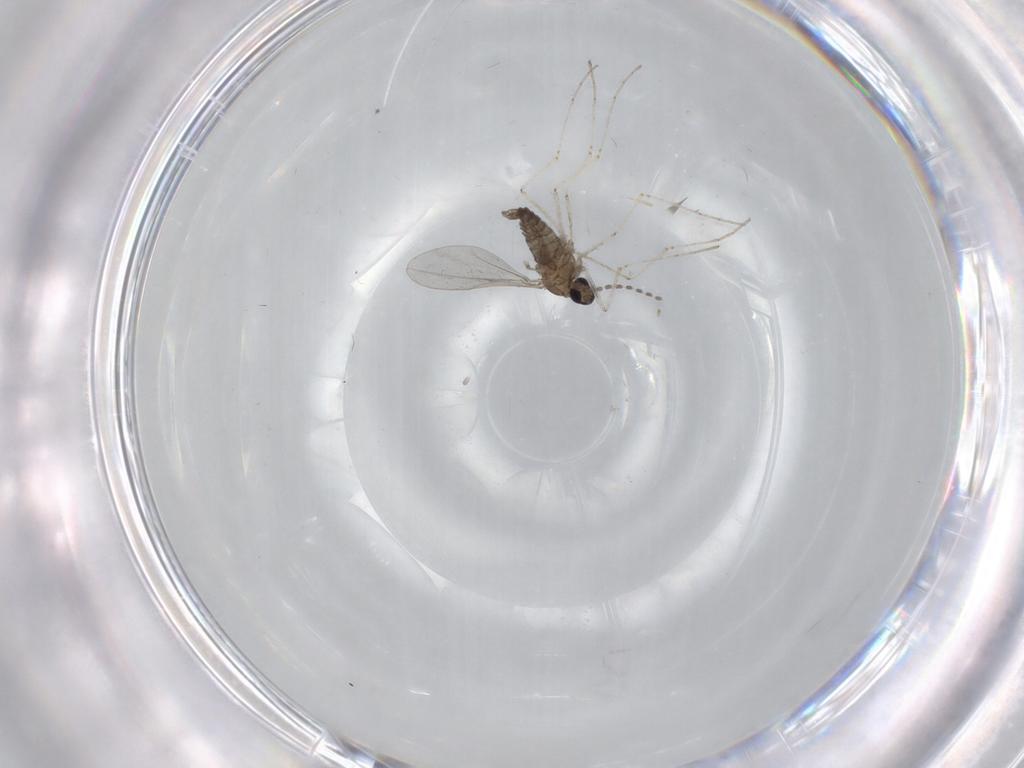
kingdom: Animalia
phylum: Arthropoda
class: Insecta
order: Diptera
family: Cecidomyiidae
